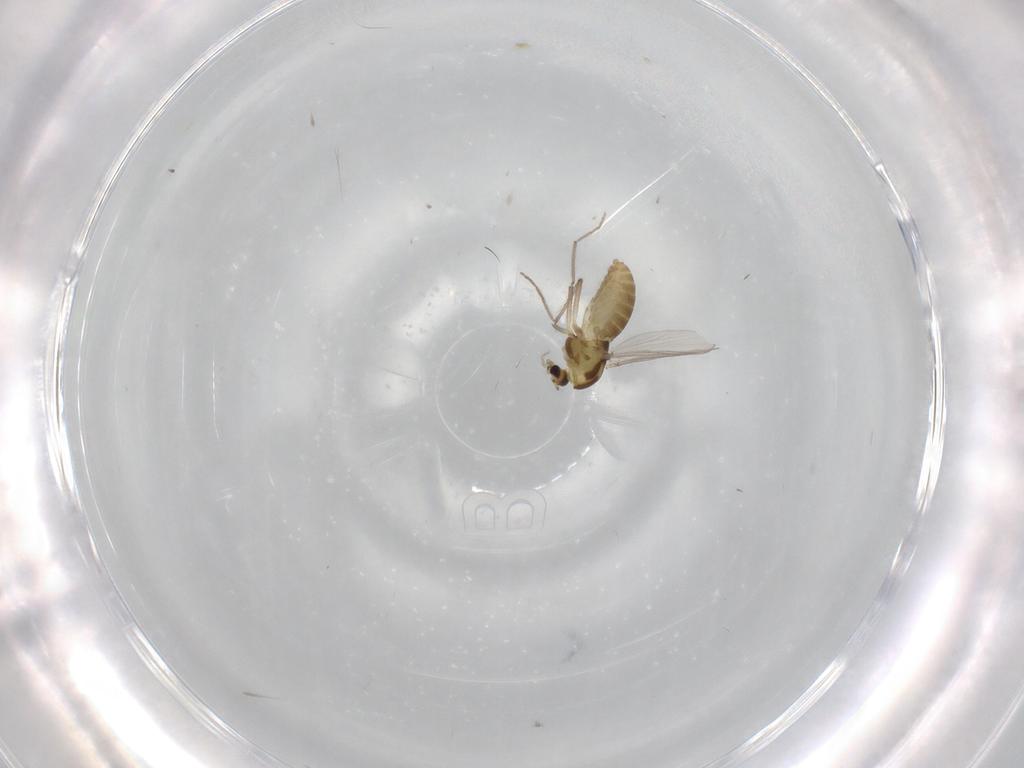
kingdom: Animalia
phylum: Arthropoda
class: Insecta
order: Diptera
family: Chironomidae
